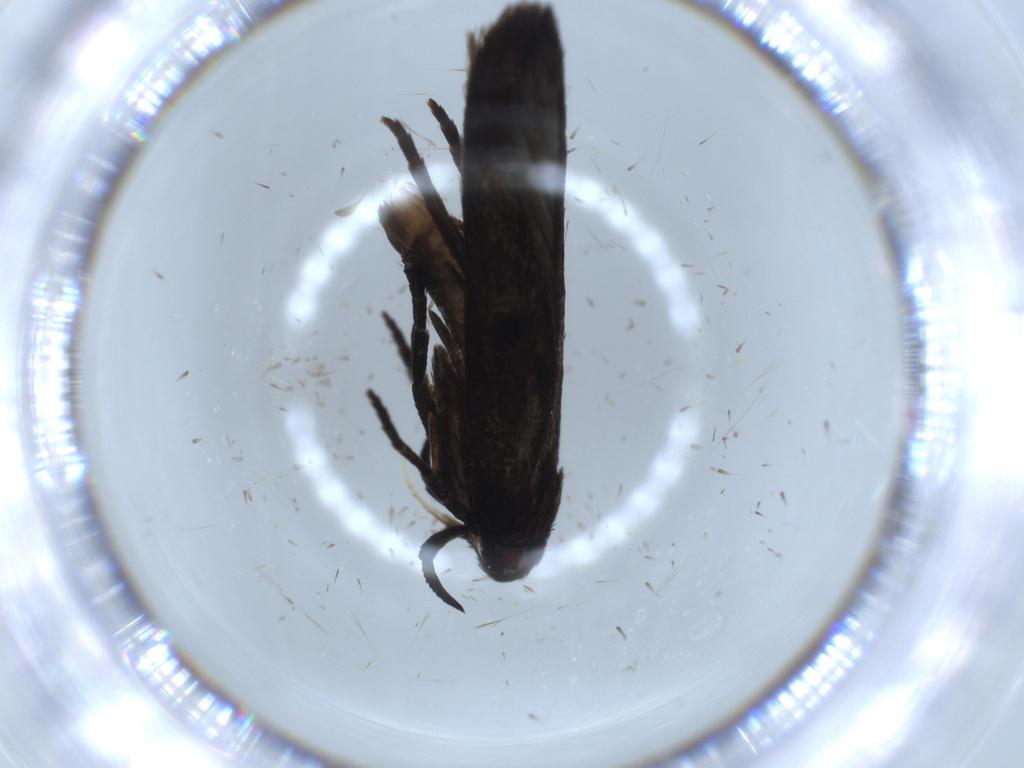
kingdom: Animalia
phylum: Arthropoda
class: Insecta
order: Lepidoptera
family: Cosmopterigidae
